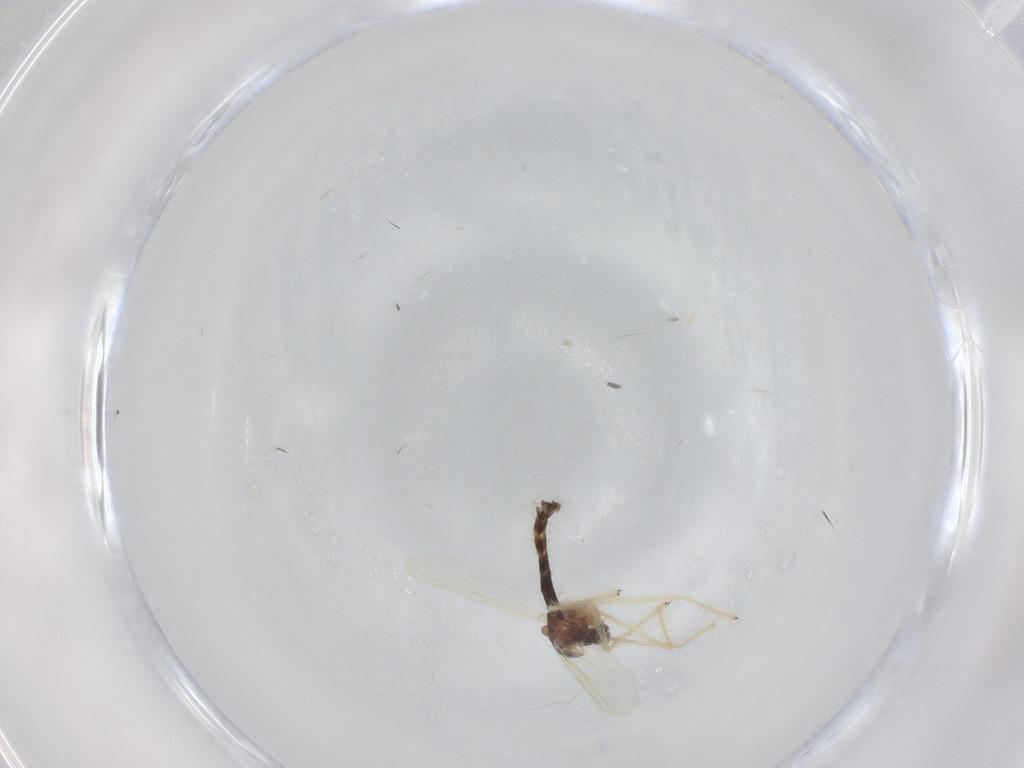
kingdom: Animalia
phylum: Arthropoda
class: Insecta
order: Diptera
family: Chironomidae
